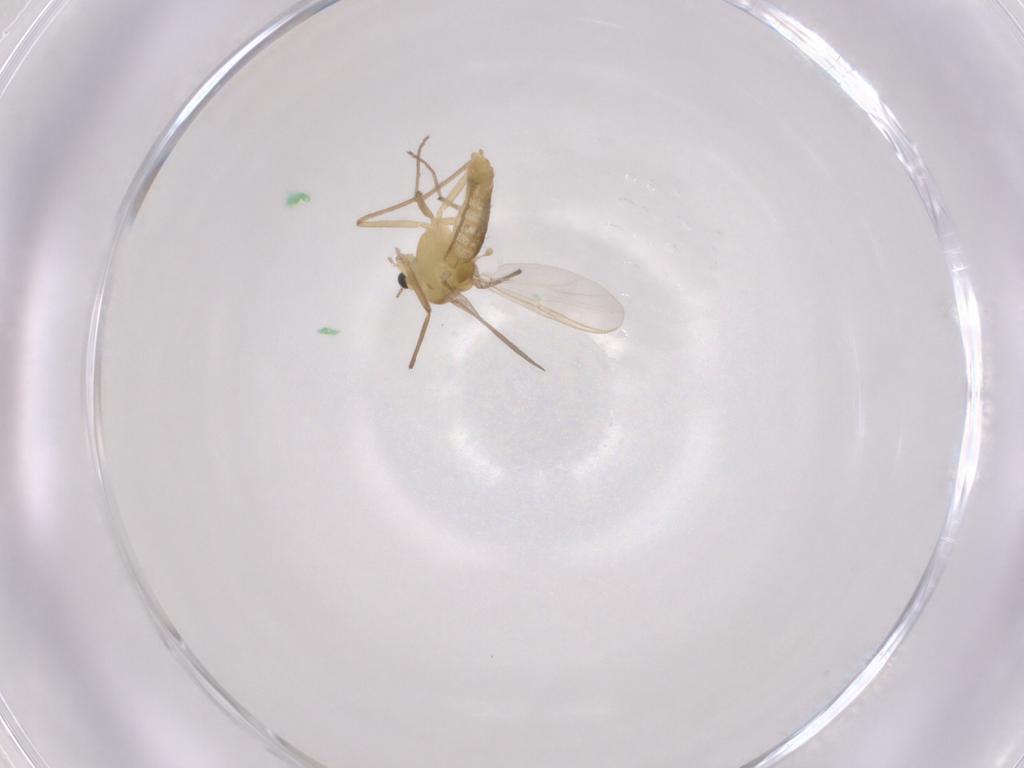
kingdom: Animalia
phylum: Arthropoda
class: Insecta
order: Diptera
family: Chironomidae
